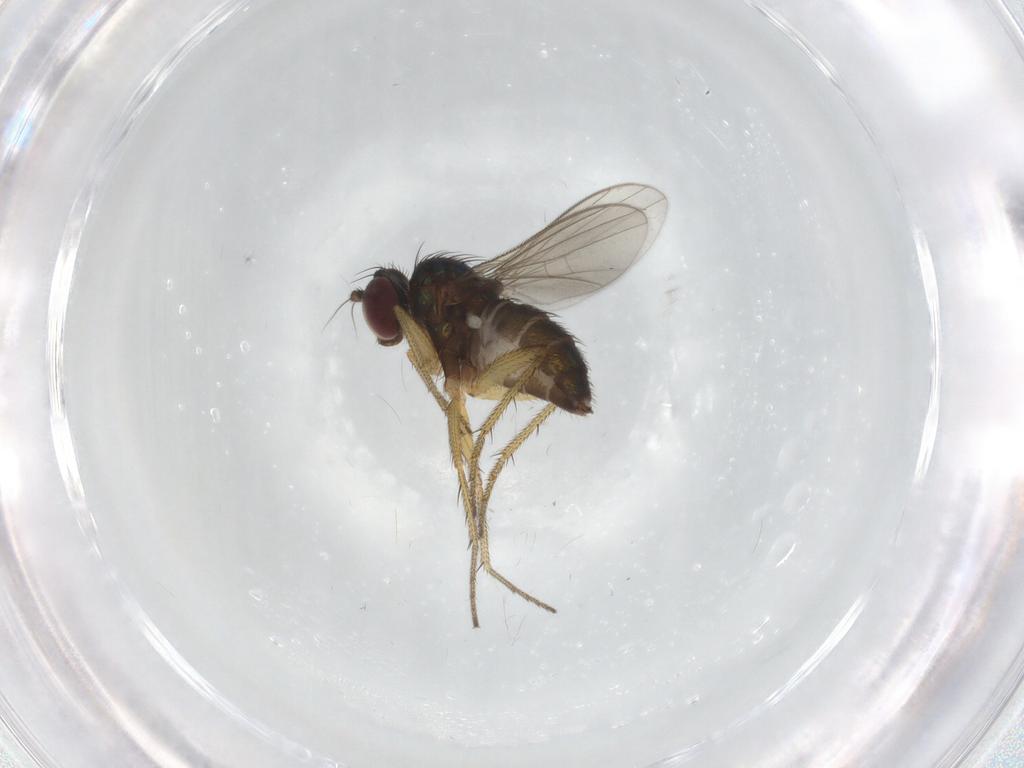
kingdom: Animalia
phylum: Arthropoda
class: Insecta
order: Diptera
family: Dolichopodidae
